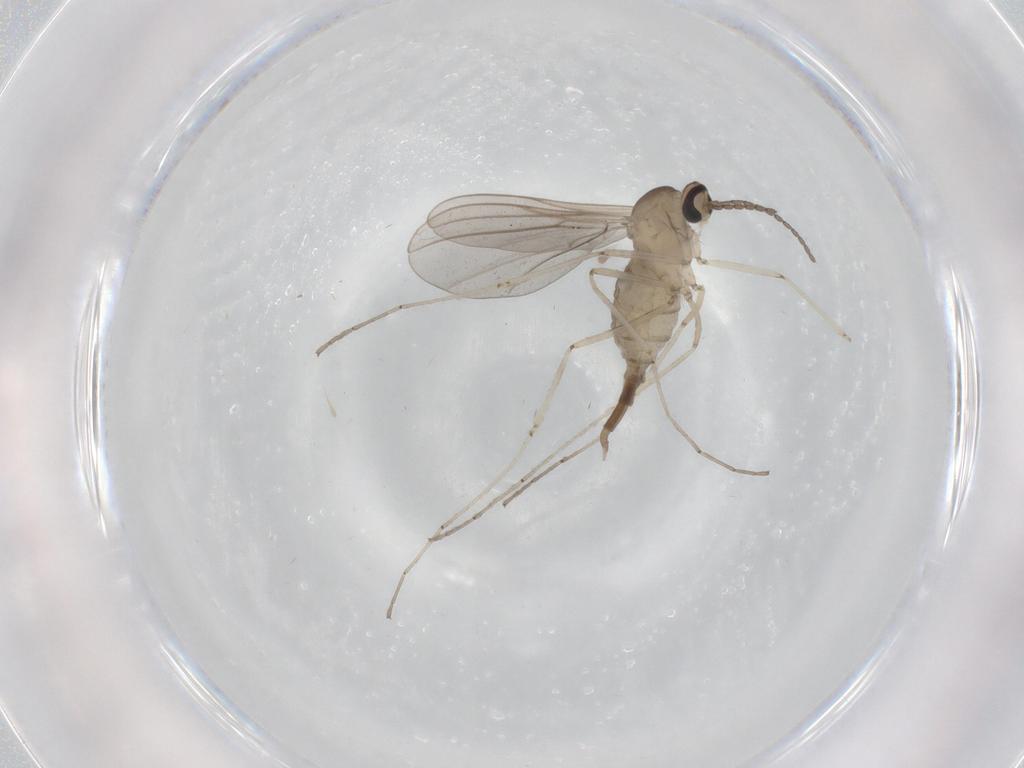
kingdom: Animalia
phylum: Arthropoda
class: Insecta
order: Diptera
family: Cecidomyiidae
